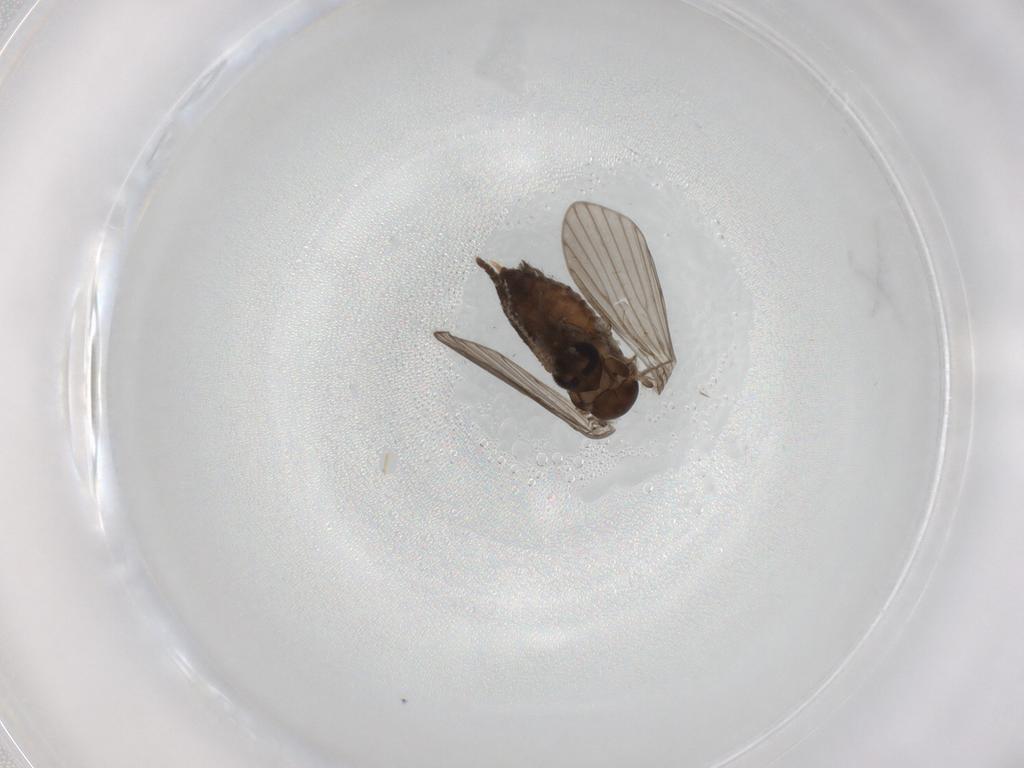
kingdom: Animalia
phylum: Arthropoda
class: Insecta
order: Diptera
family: Psychodidae
